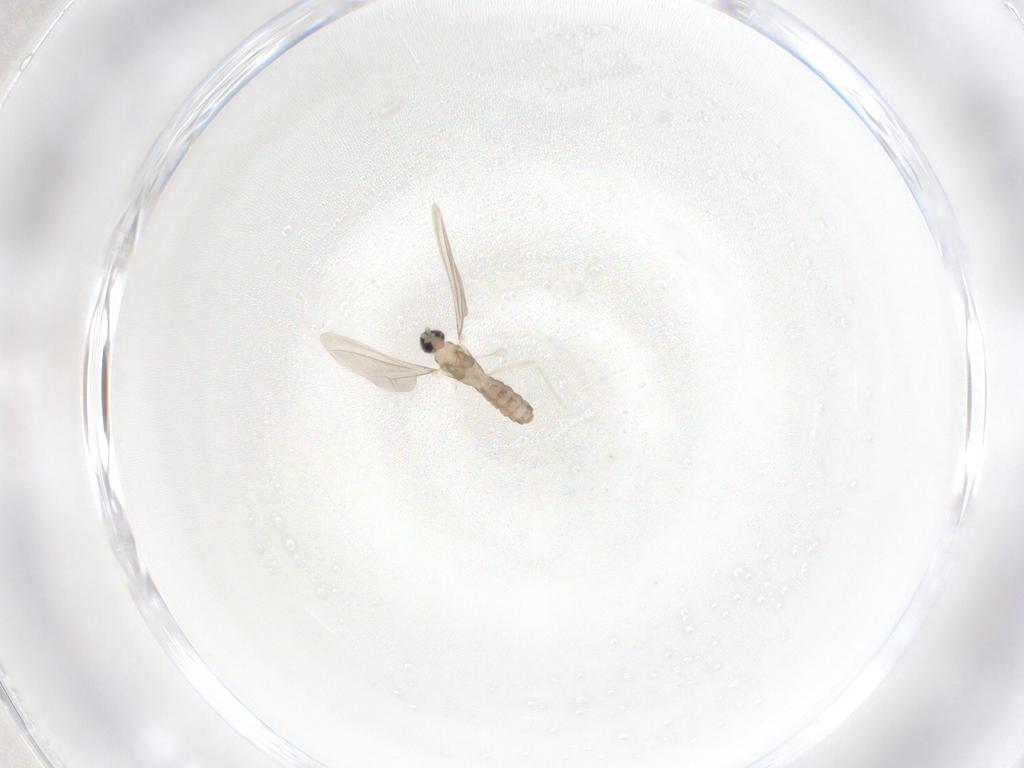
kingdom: Animalia
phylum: Arthropoda
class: Insecta
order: Diptera
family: Cecidomyiidae
